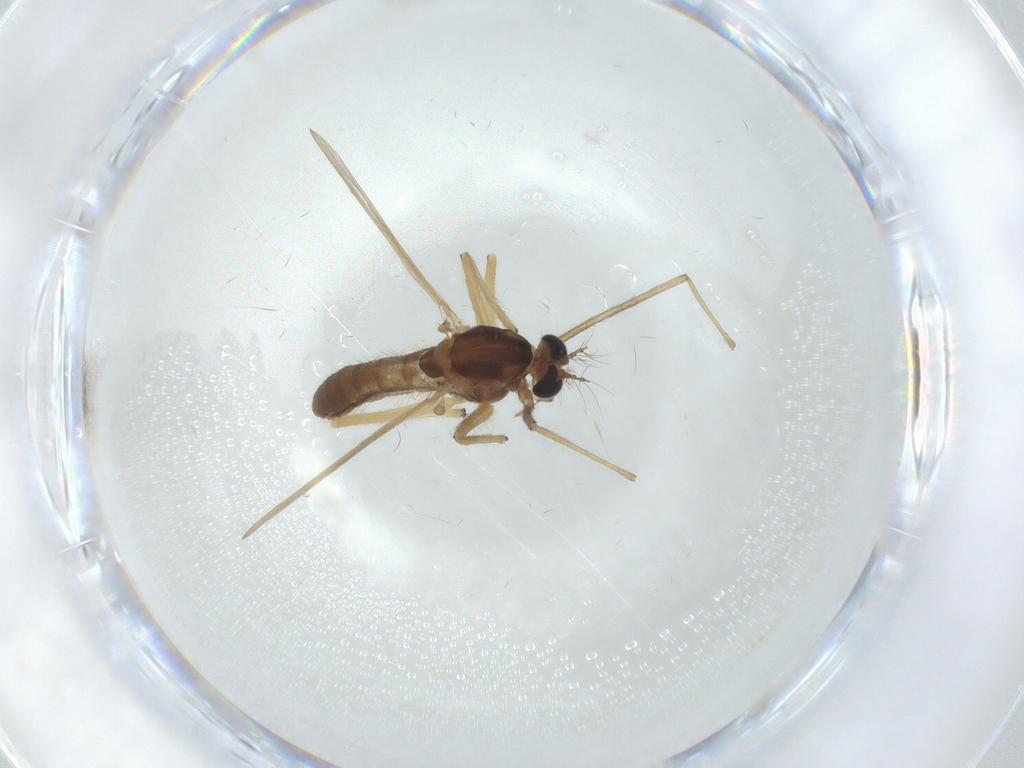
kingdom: Animalia
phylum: Arthropoda
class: Insecta
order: Diptera
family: Chironomidae
